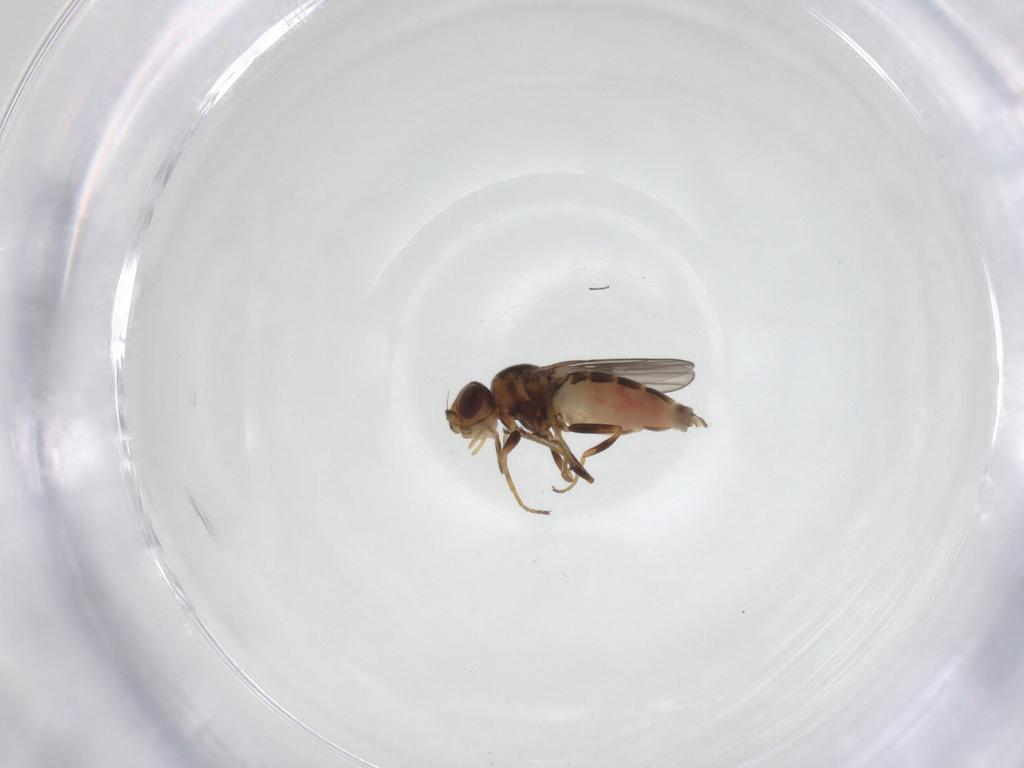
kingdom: Animalia
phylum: Arthropoda
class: Insecta
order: Diptera
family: Chloropidae
